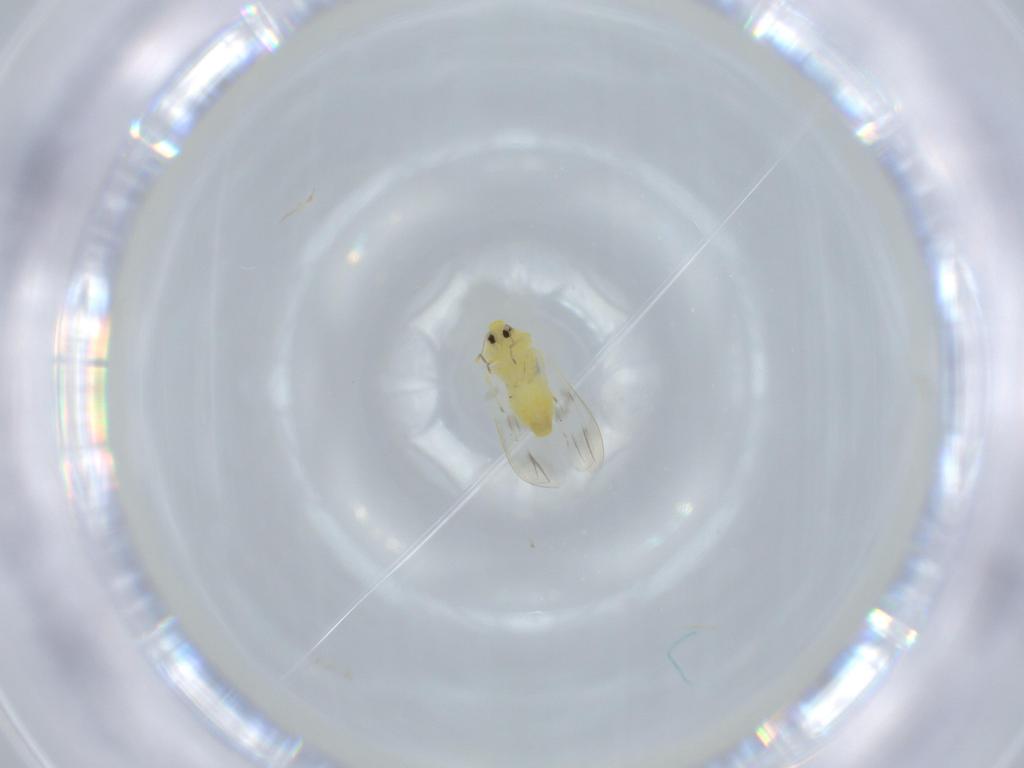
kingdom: Animalia
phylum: Arthropoda
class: Insecta
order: Hemiptera
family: Aleyrodidae
